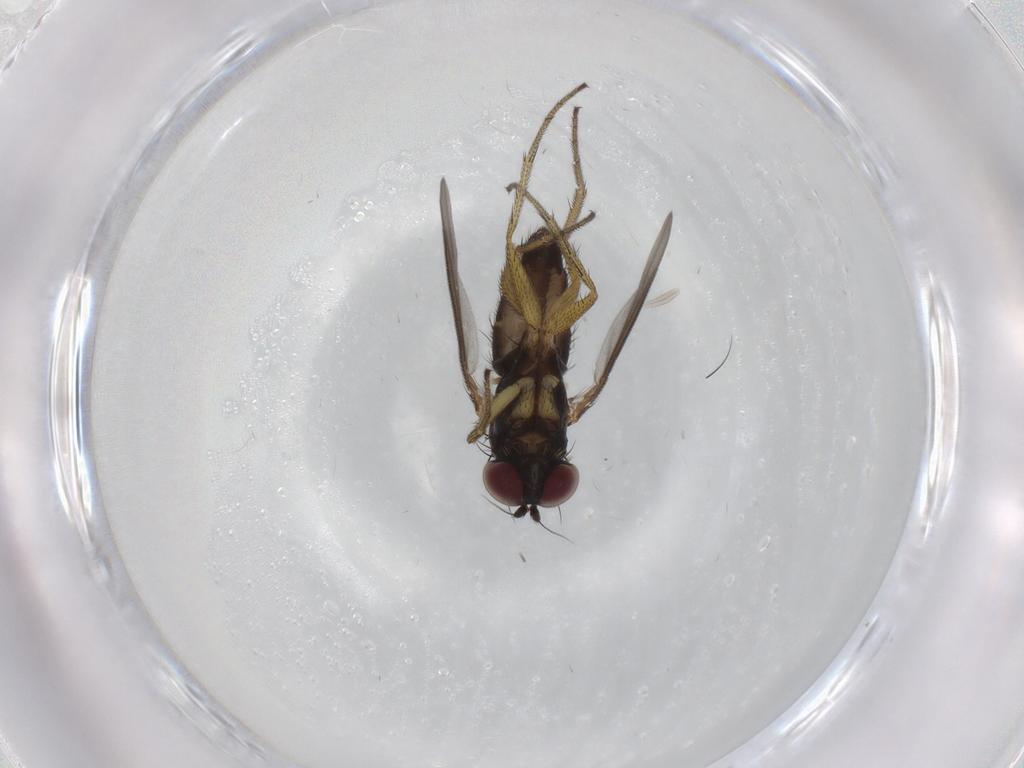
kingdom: Animalia
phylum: Arthropoda
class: Insecta
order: Diptera
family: Dolichopodidae
